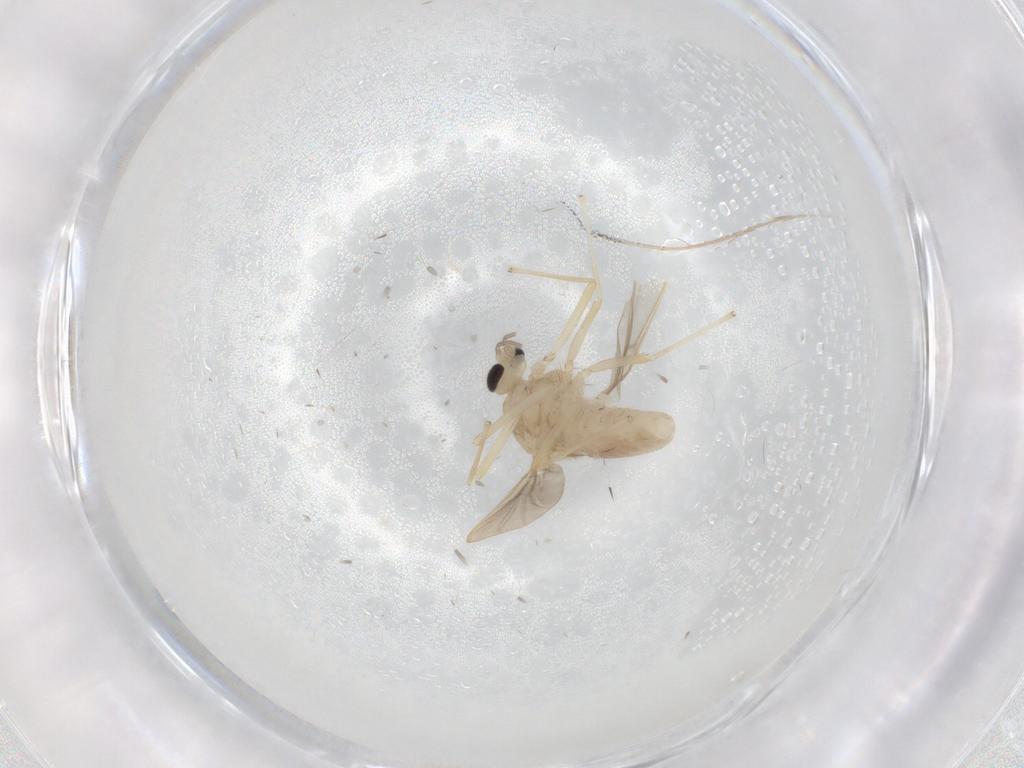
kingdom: Animalia
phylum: Arthropoda
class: Insecta
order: Diptera
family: Chironomidae
